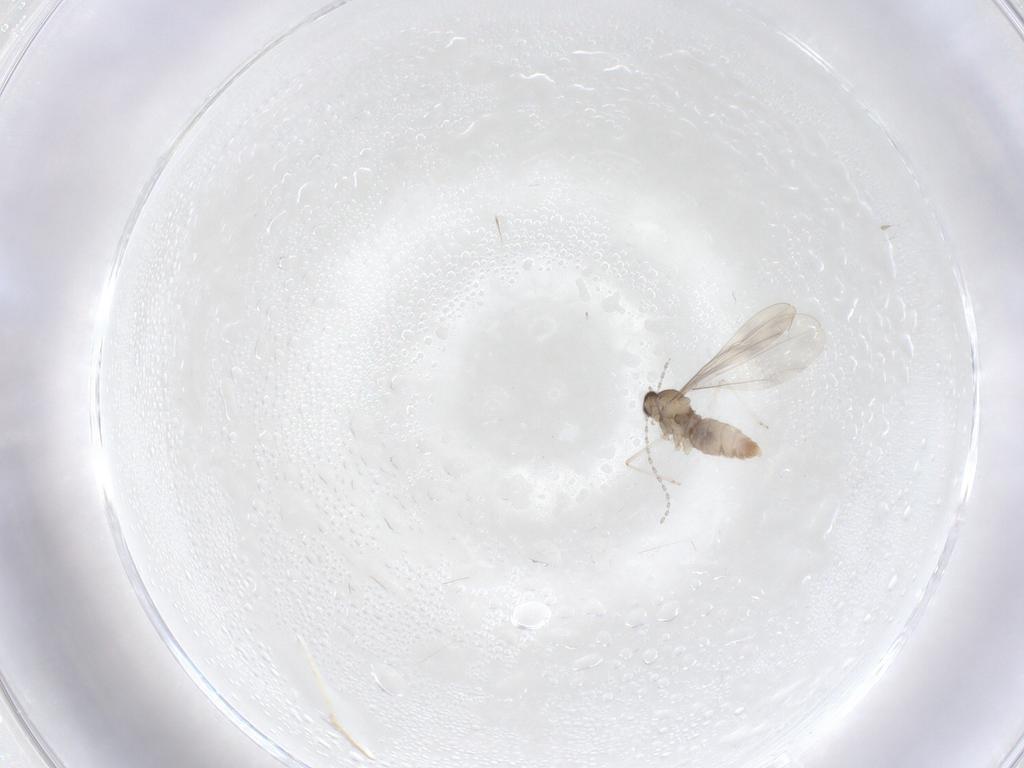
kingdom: Animalia
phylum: Arthropoda
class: Insecta
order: Diptera
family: Cecidomyiidae
